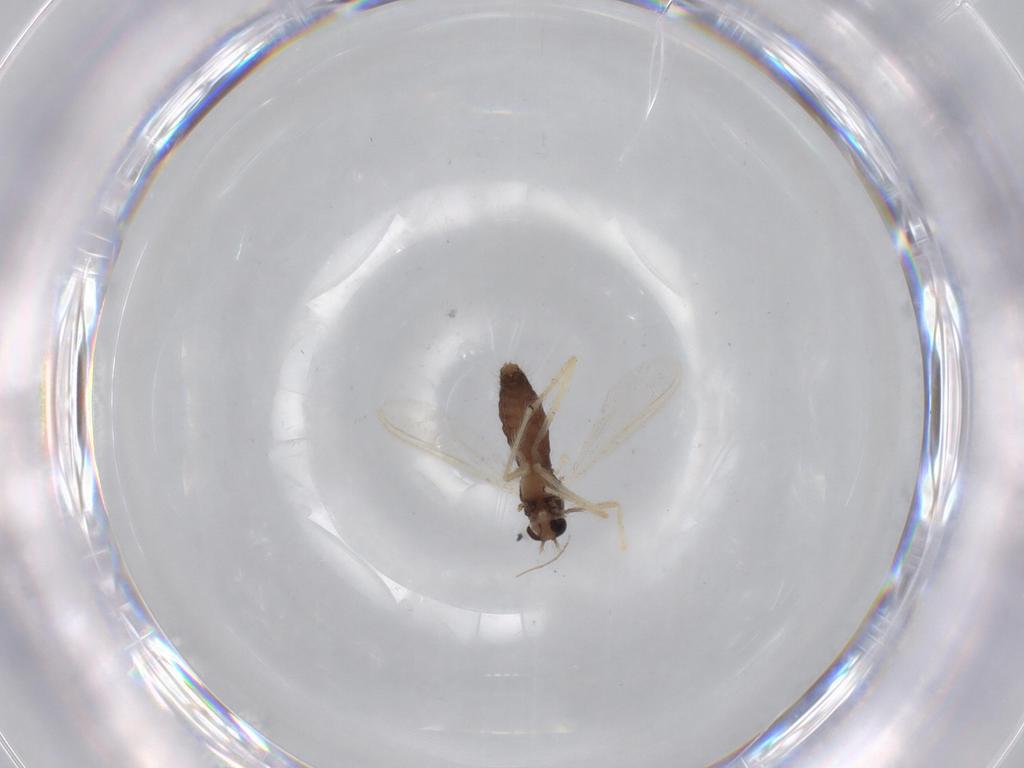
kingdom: Animalia
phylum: Arthropoda
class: Insecta
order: Diptera
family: Chironomidae
